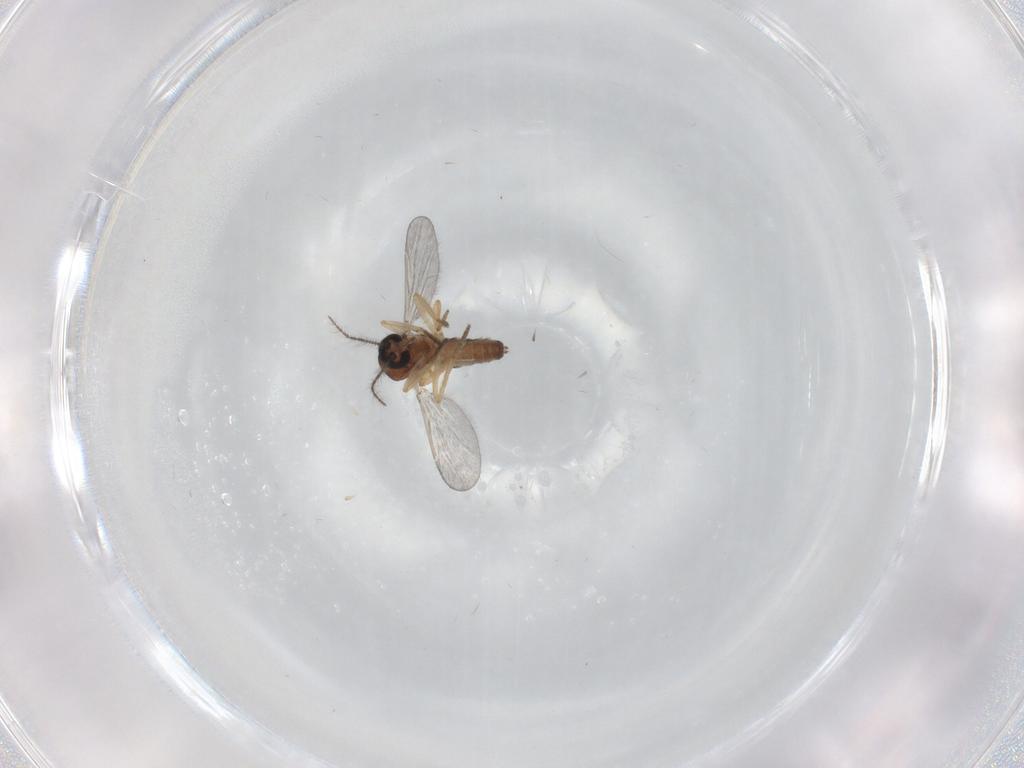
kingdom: Animalia
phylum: Arthropoda
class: Insecta
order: Diptera
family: Ceratopogonidae
